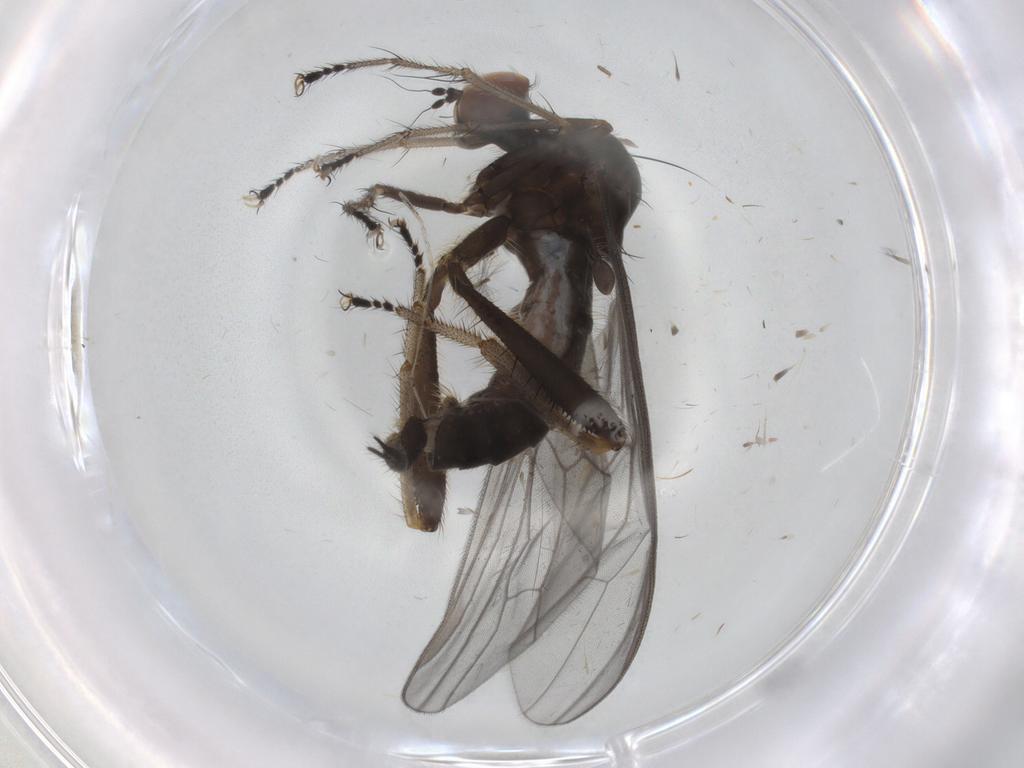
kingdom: Animalia
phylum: Arthropoda
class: Insecta
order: Diptera
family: Hybotidae
